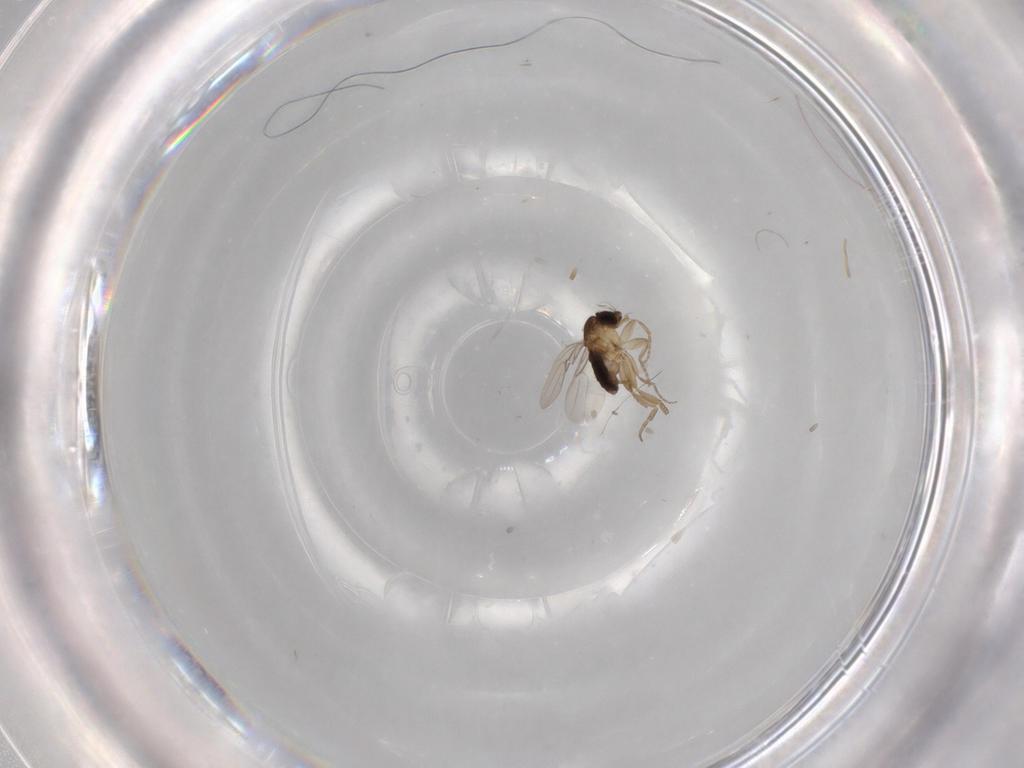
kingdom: Animalia
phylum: Arthropoda
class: Insecta
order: Diptera
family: Phoridae
